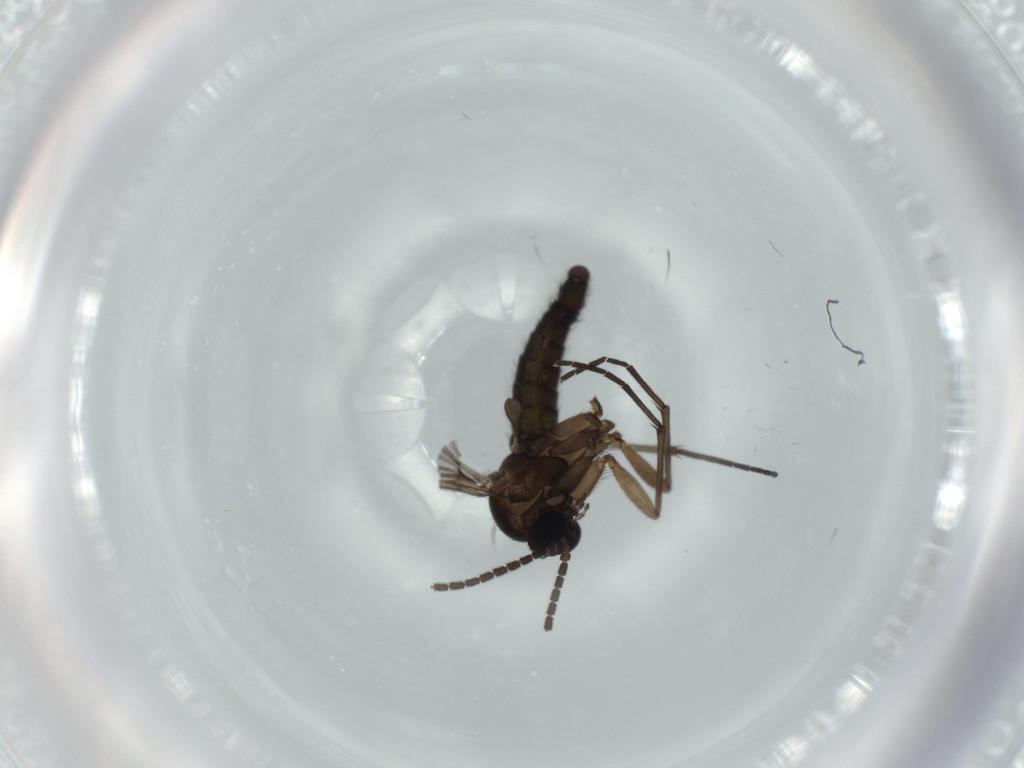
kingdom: Animalia
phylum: Arthropoda
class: Insecta
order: Diptera
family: Sciaridae
